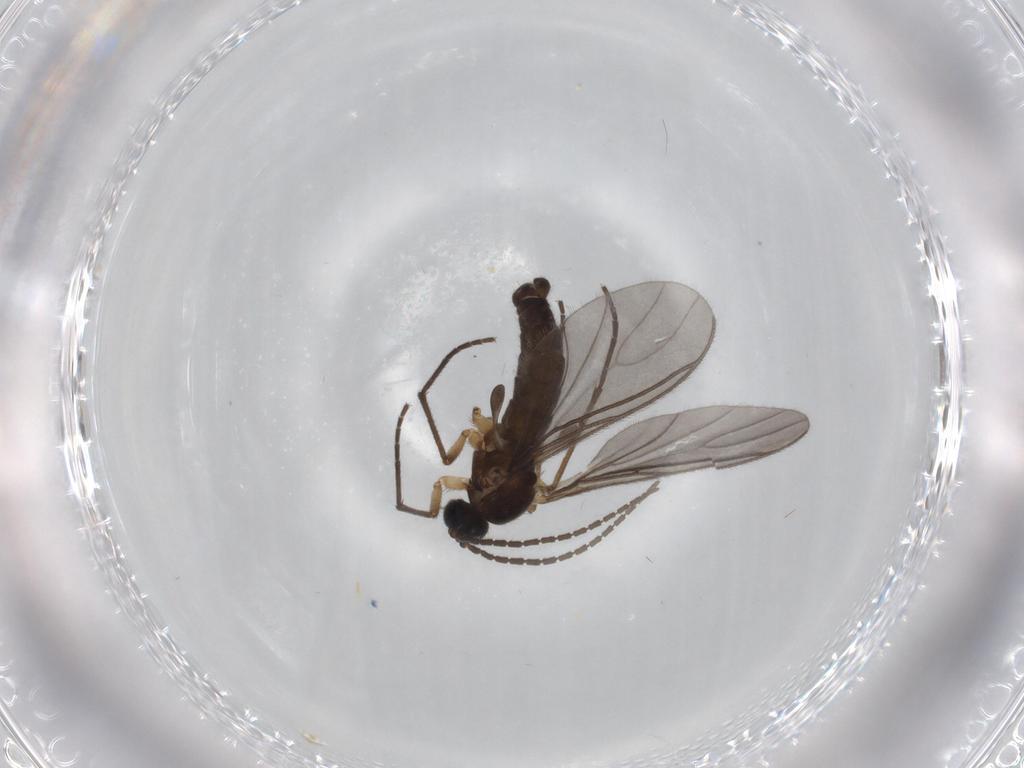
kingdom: Animalia
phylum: Arthropoda
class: Insecta
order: Diptera
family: Sciaridae
